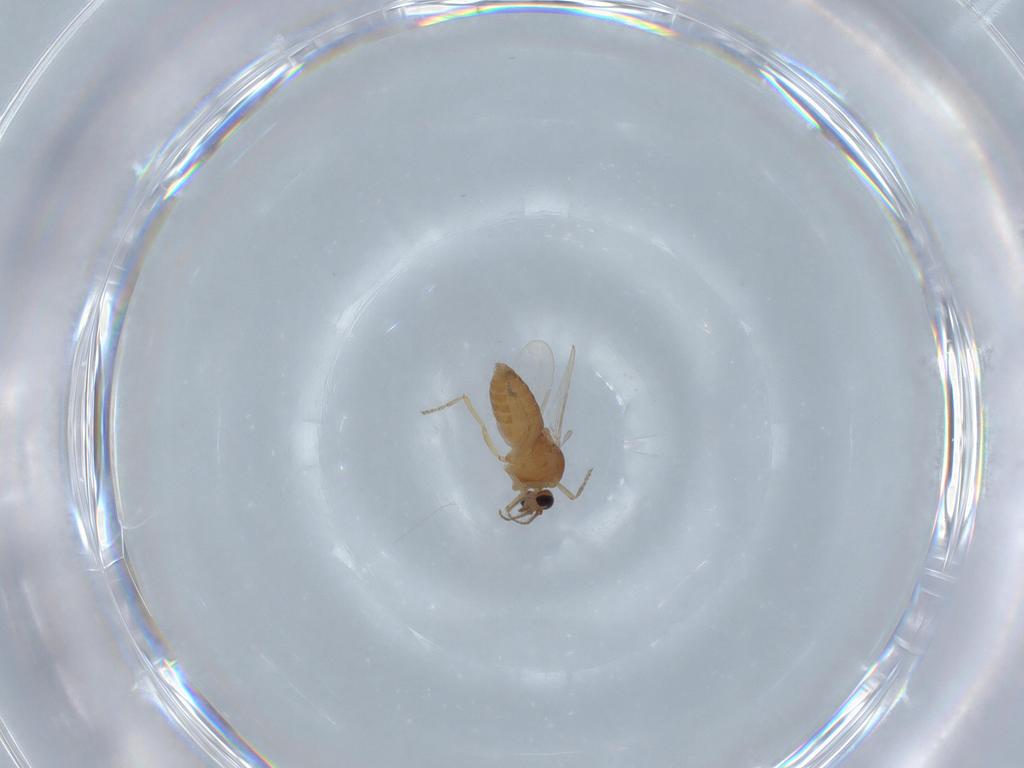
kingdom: Animalia
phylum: Arthropoda
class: Insecta
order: Diptera
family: Ceratopogonidae
